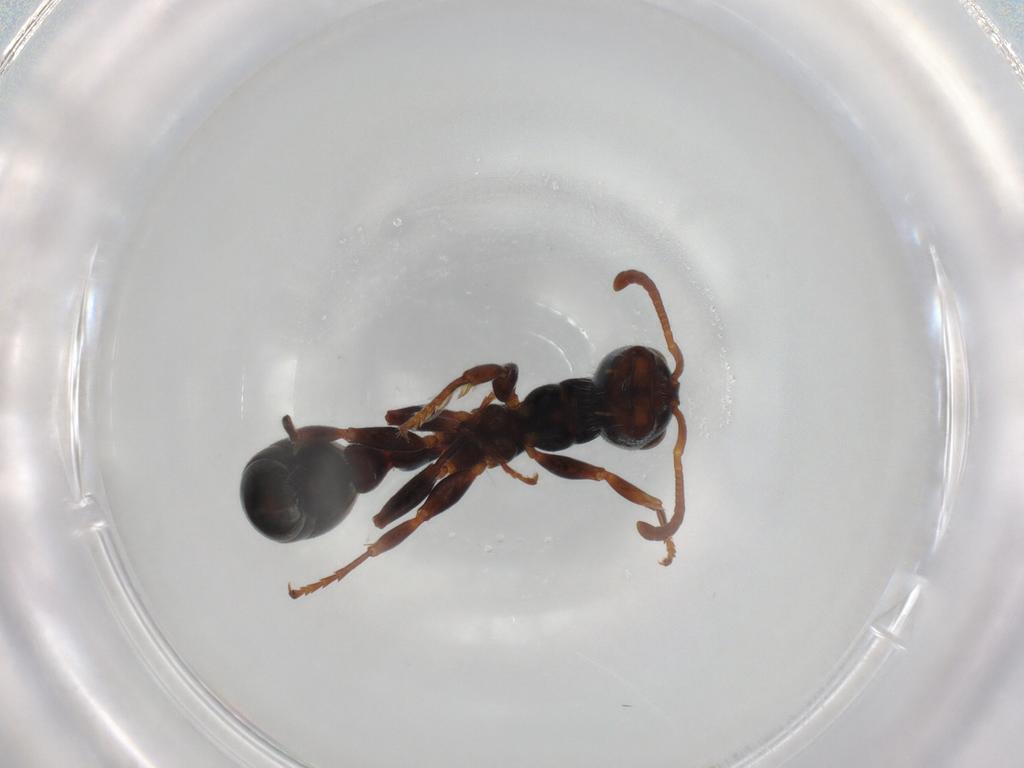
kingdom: Animalia
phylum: Arthropoda
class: Insecta
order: Hymenoptera
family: Formicidae
